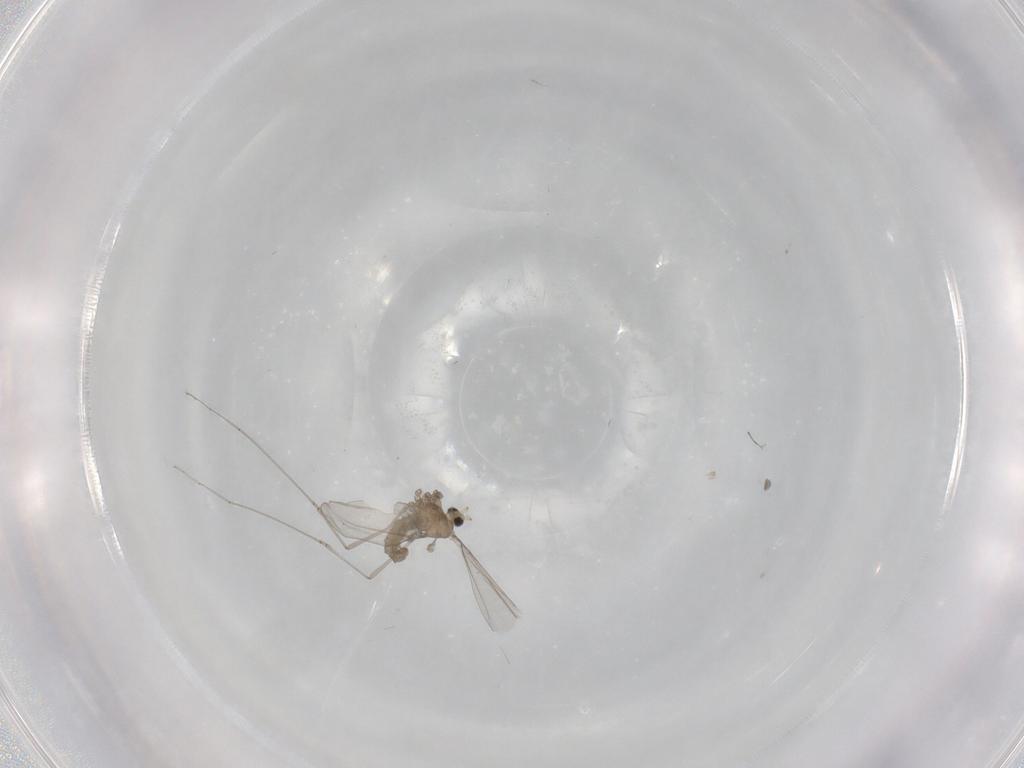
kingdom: Animalia
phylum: Arthropoda
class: Insecta
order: Diptera
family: Cecidomyiidae
